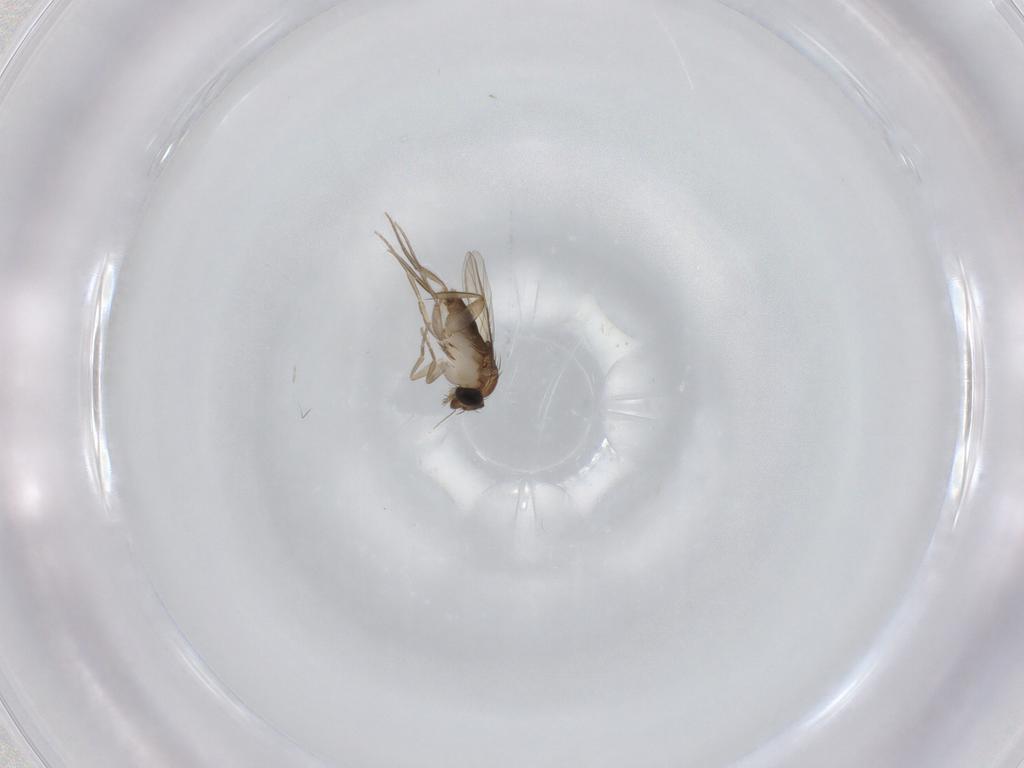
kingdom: Animalia
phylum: Arthropoda
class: Insecta
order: Diptera
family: Phoridae
